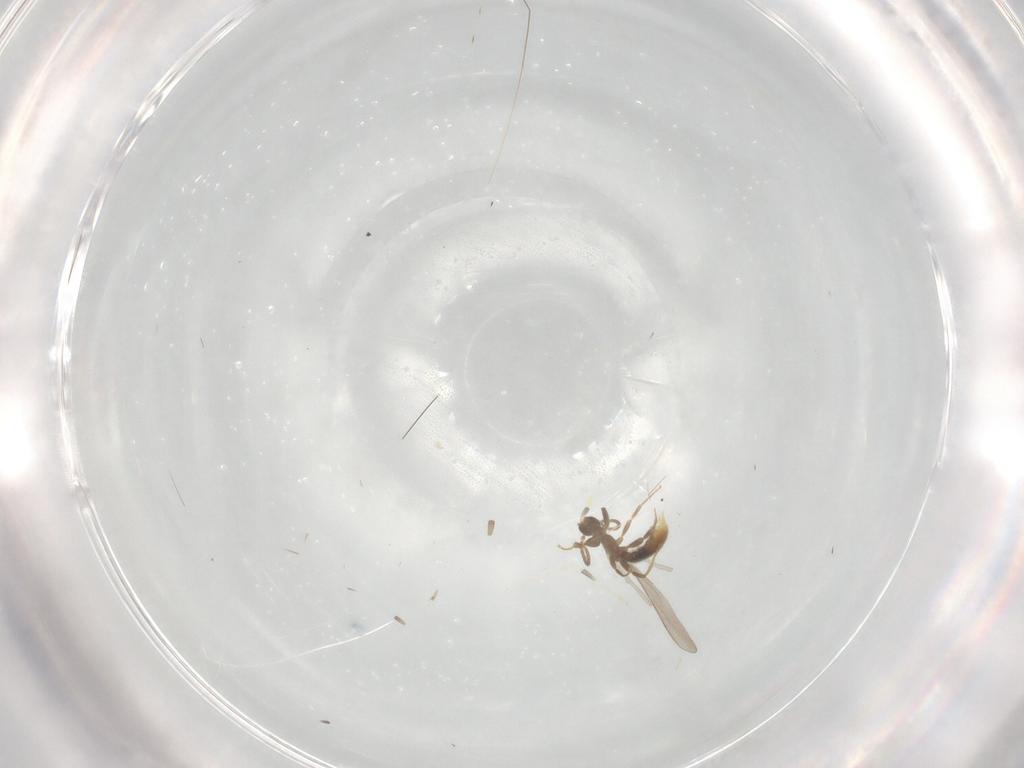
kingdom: Animalia
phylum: Arthropoda
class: Insecta
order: Hymenoptera
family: Formicidae
